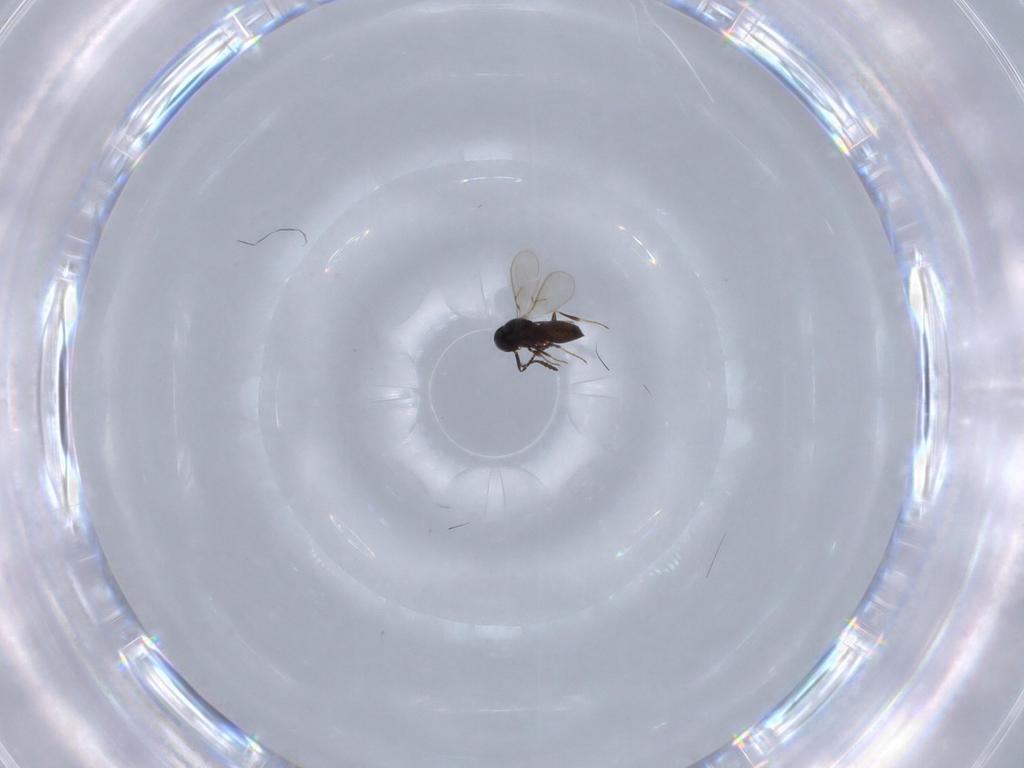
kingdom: Animalia
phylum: Arthropoda
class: Insecta
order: Hymenoptera
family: Scelionidae
